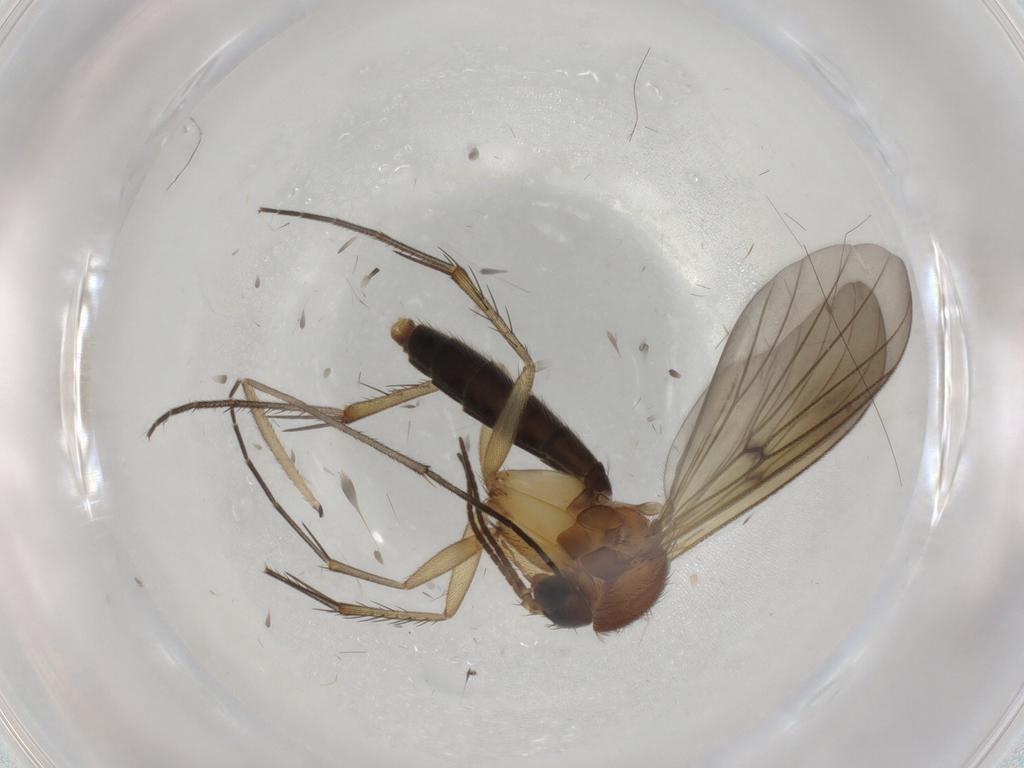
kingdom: Animalia
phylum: Arthropoda
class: Insecta
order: Diptera
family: Mycetophilidae
